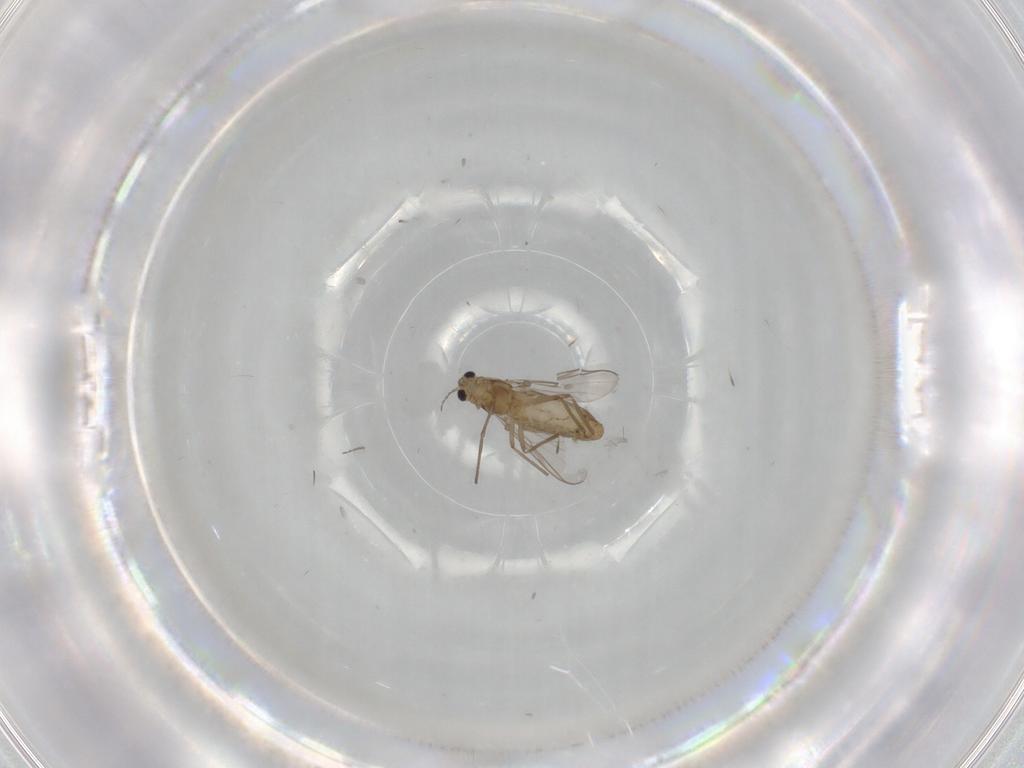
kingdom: Animalia
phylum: Arthropoda
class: Insecta
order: Diptera
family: Chironomidae
